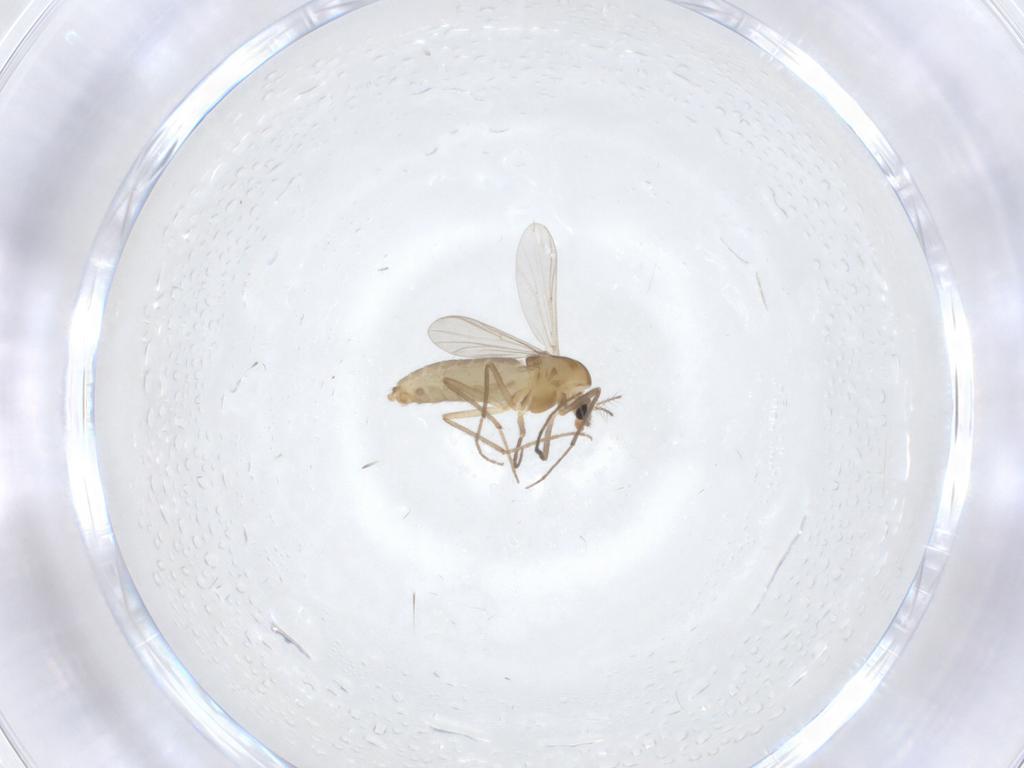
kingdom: Animalia
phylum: Arthropoda
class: Insecta
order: Diptera
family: Chironomidae
